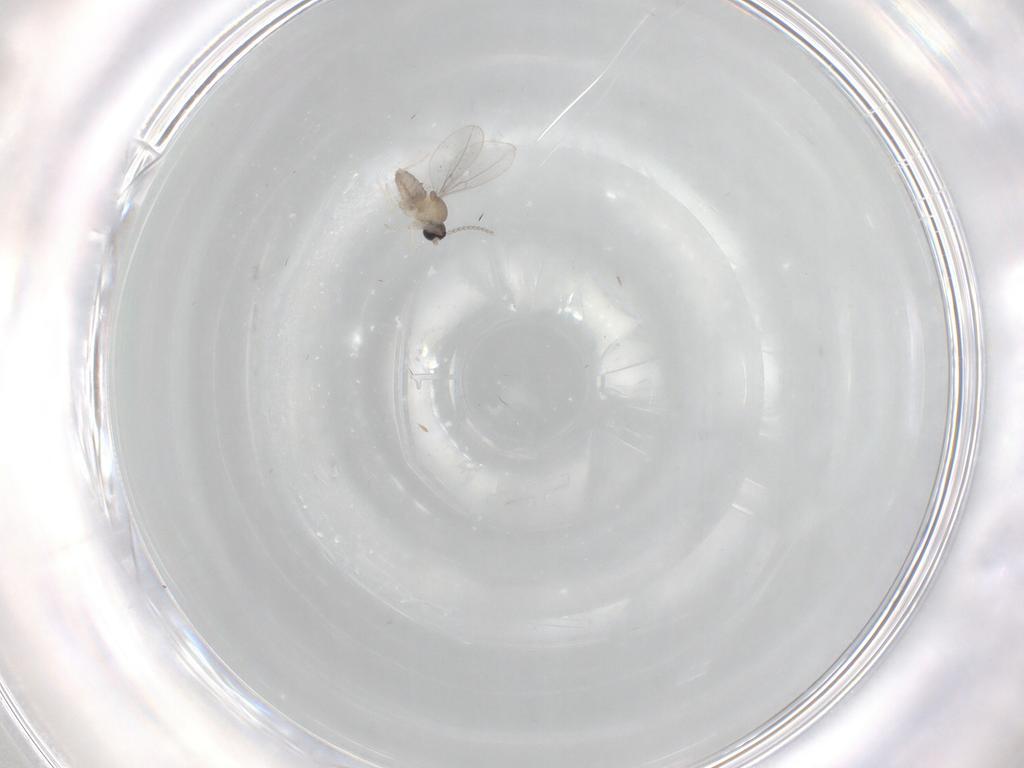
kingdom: Animalia
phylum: Arthropoda
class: Insecta
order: Diptera
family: Cecidomyiidae
